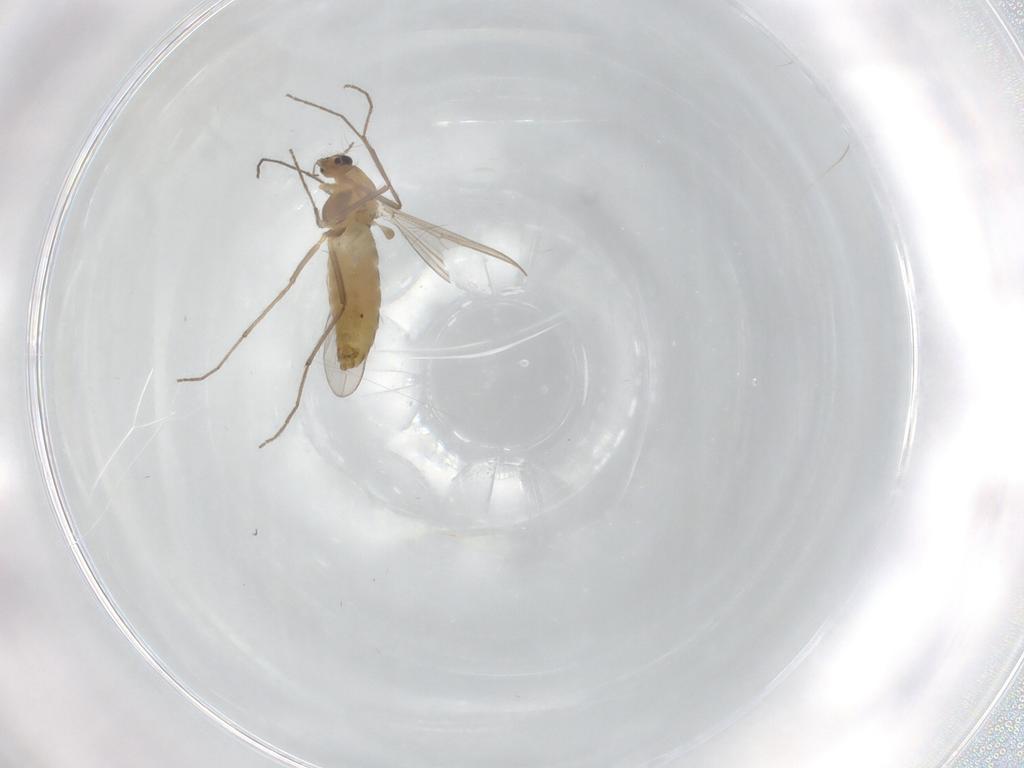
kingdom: Animalia
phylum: Arthropoda
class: Insecta
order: Diptera
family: Chironomidae
